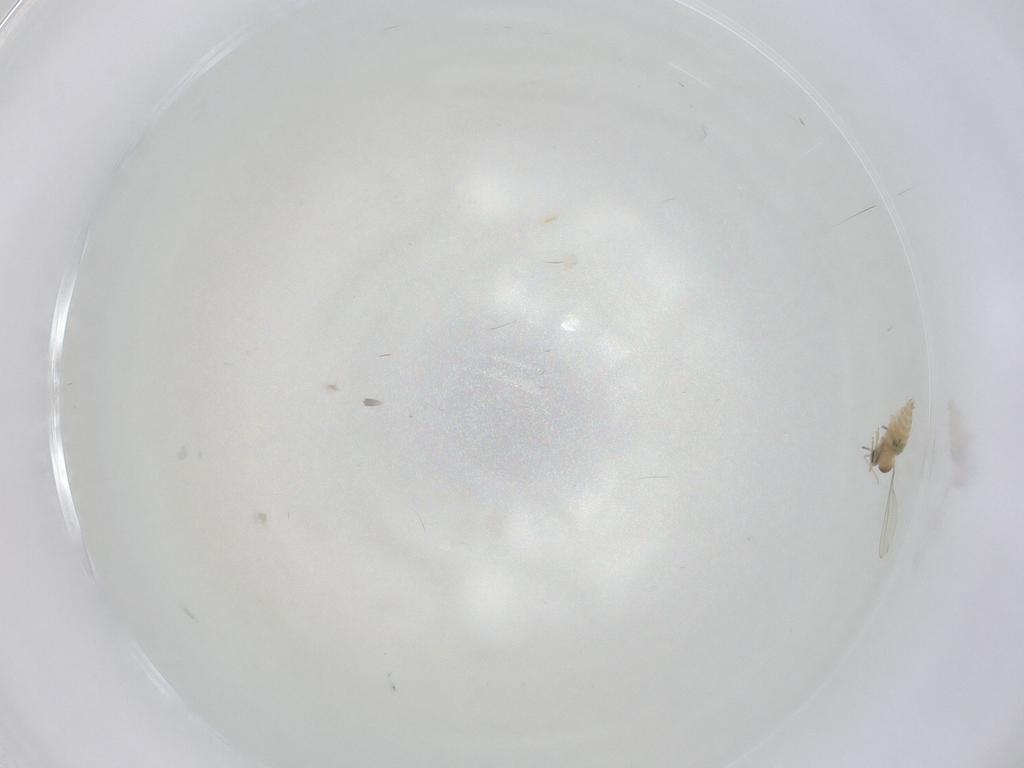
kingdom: Animalia
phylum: Arthropoda
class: Insecta
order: Diptera
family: Cecidomyiidae
